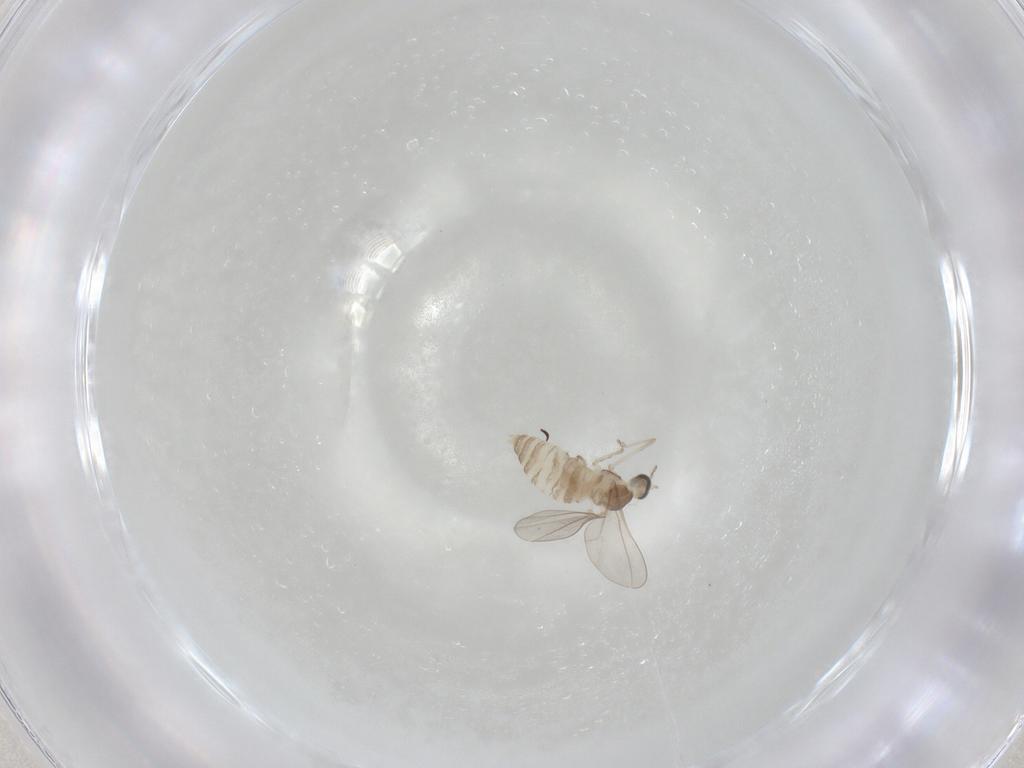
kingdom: Animalia
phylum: Arthropoda
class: Insecta
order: Diptera
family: Cecidomyiidae
